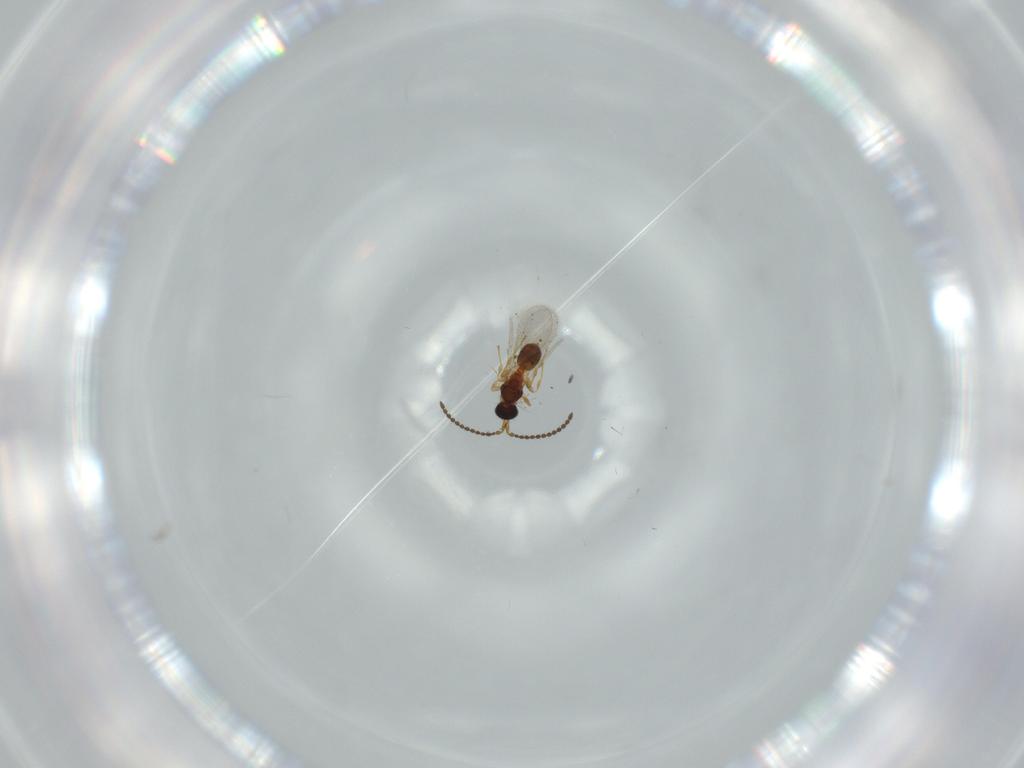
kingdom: Animalia
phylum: Arthropoda
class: Insecta
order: Hymenoptera
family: Diapriidae
